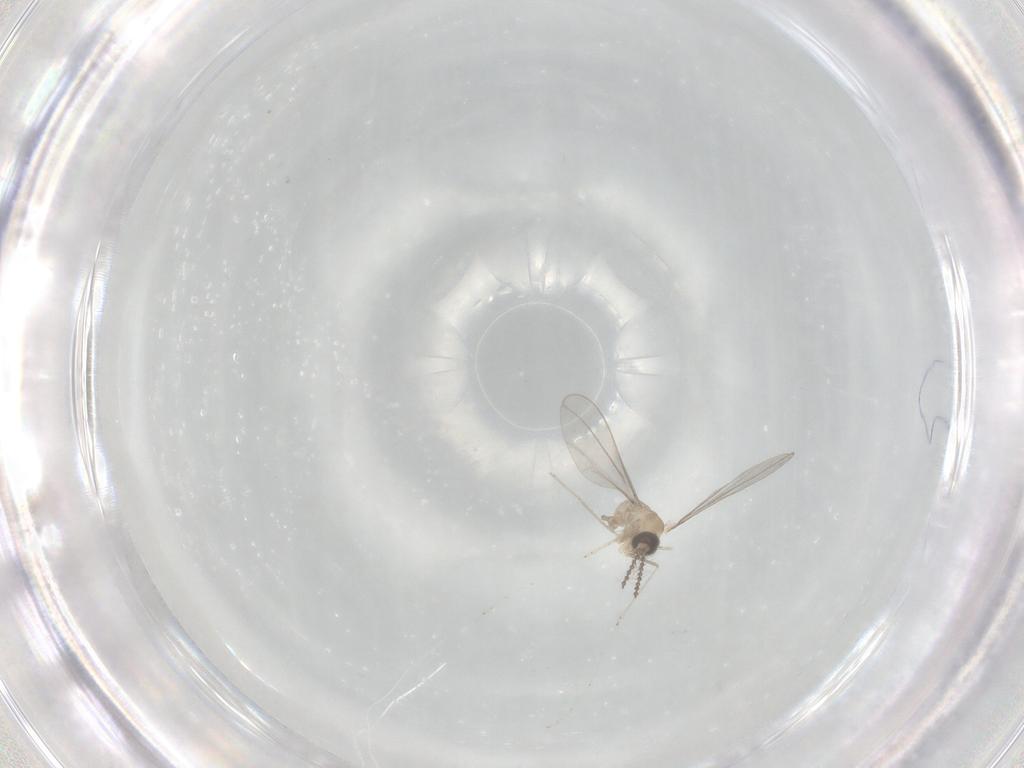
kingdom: Animalia
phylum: Arthropoda
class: Insecta
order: Diptera
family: Cecidomyiidae
